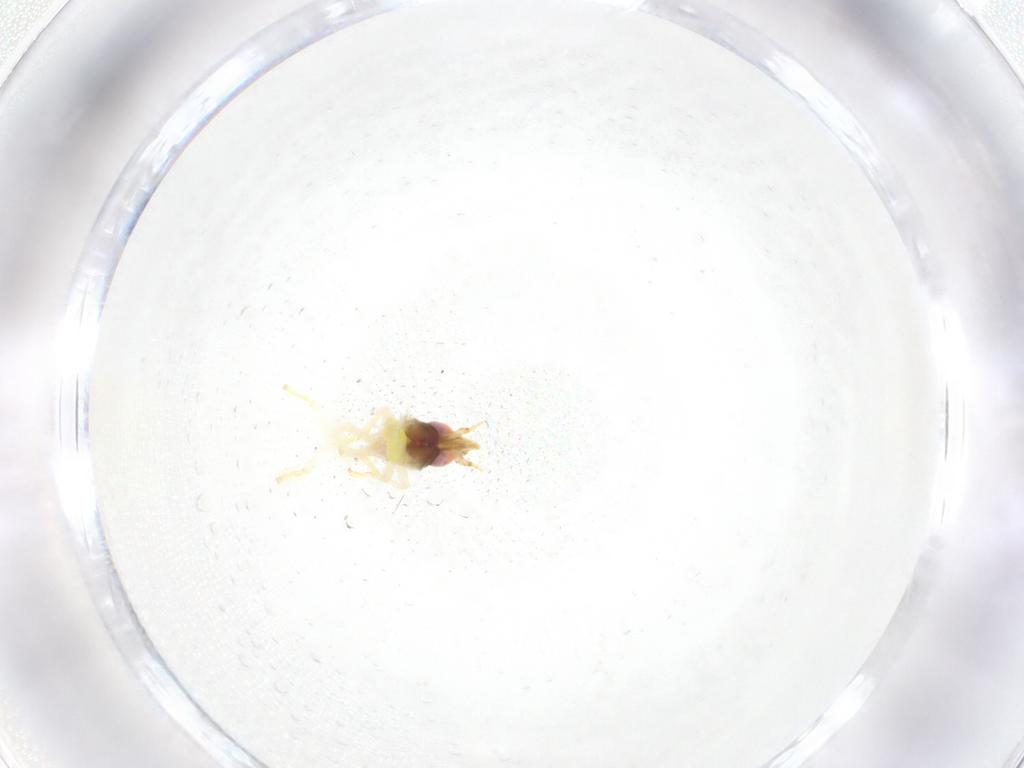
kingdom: Animalia
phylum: Arthropoda
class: Insecta
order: Hemiptera
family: Cicadellidae
